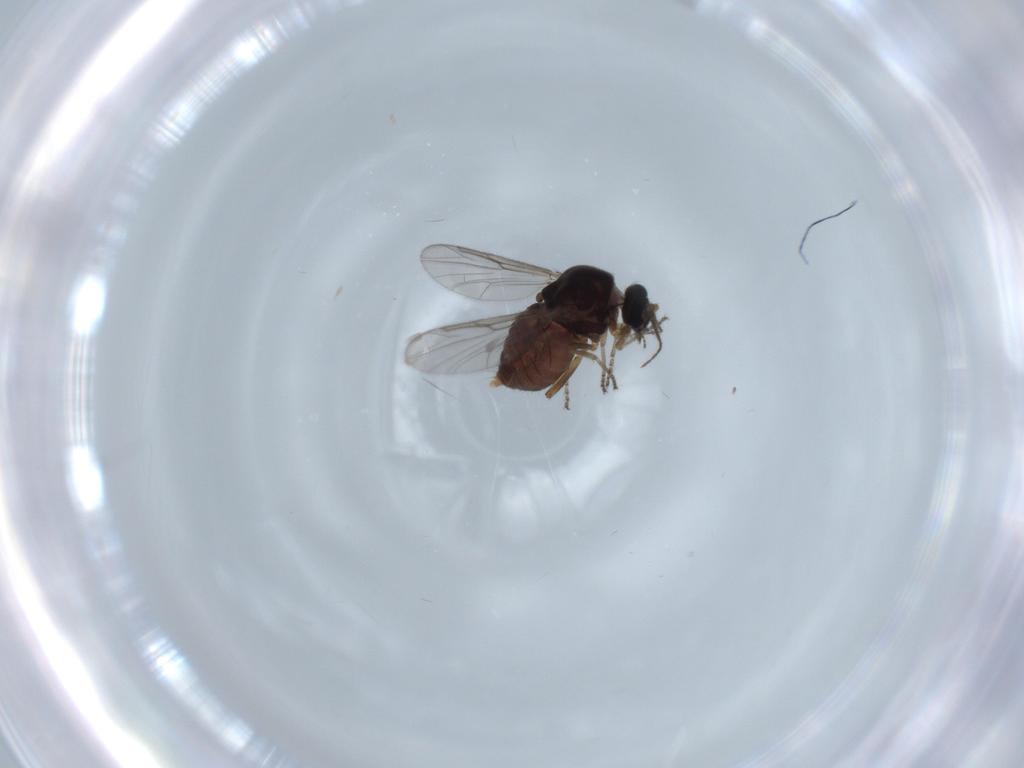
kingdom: Animalia
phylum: Arthropoda
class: Insecta
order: Diptera
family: Ceratopogonidae
